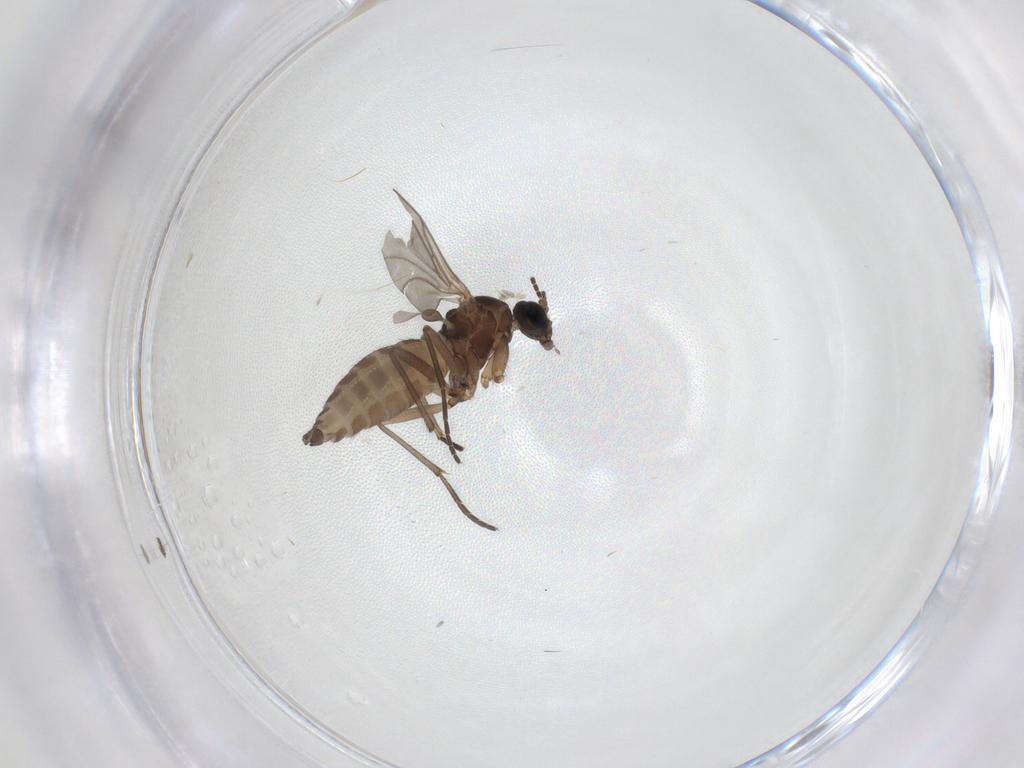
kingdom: Animalia
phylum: Arthropoda
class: Insecta
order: Diptera
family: Sciaridae
